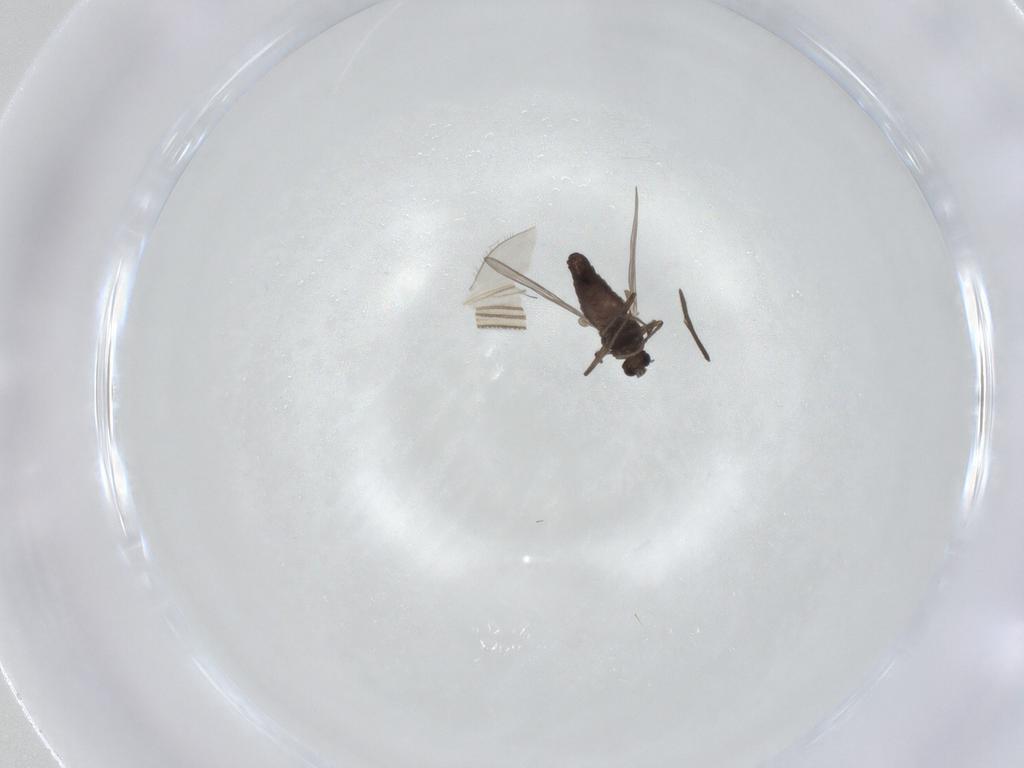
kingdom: Animalia
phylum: Arthropoda
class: Insecta
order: Diptera
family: Chironomidae
